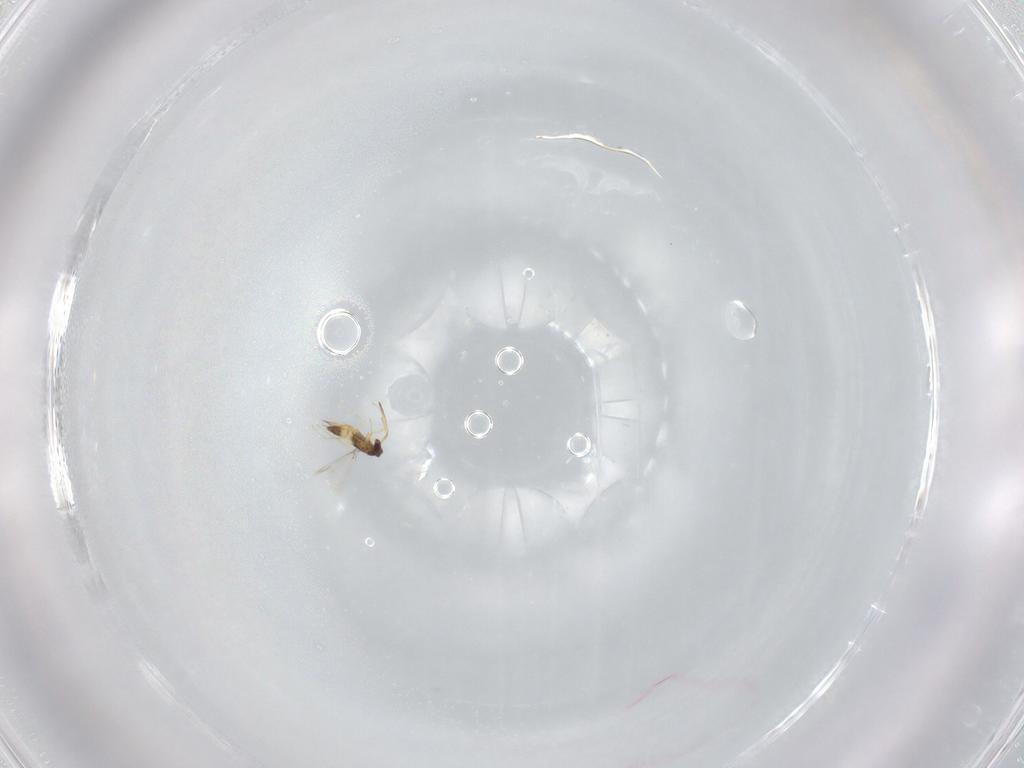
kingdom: Animalia
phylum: Arthropoda
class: Insecta
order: Hymenoptera
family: Mymaridae
